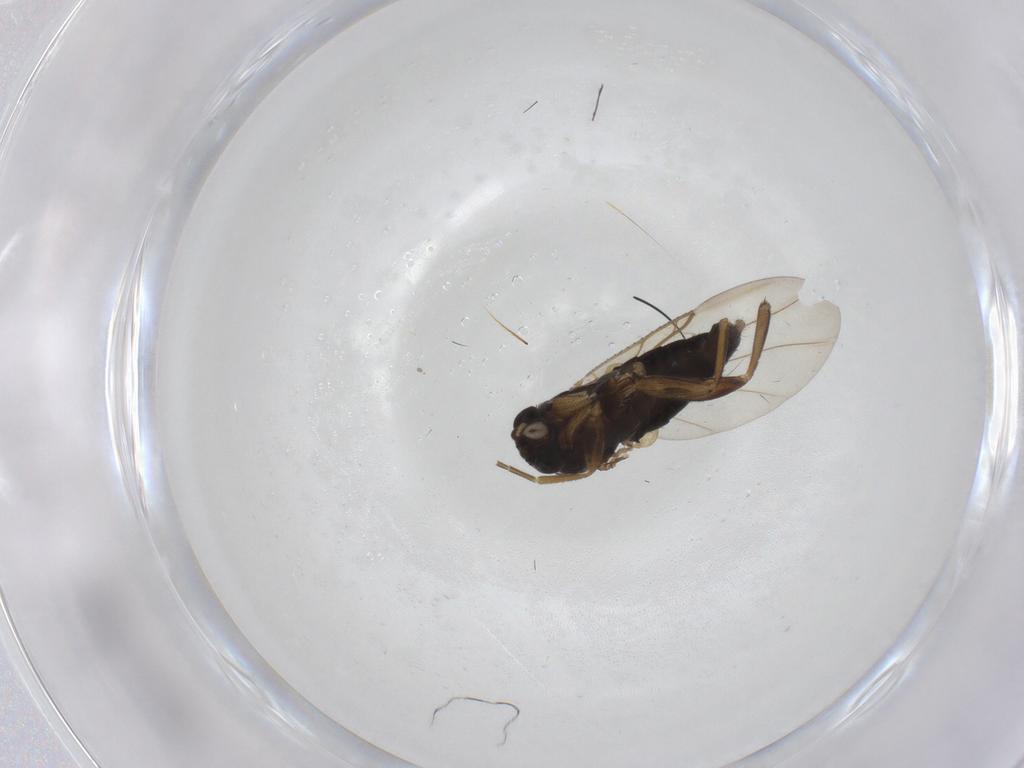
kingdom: Animalia
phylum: Arthropoda
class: Insecta
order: Diptera
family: Phoridae
